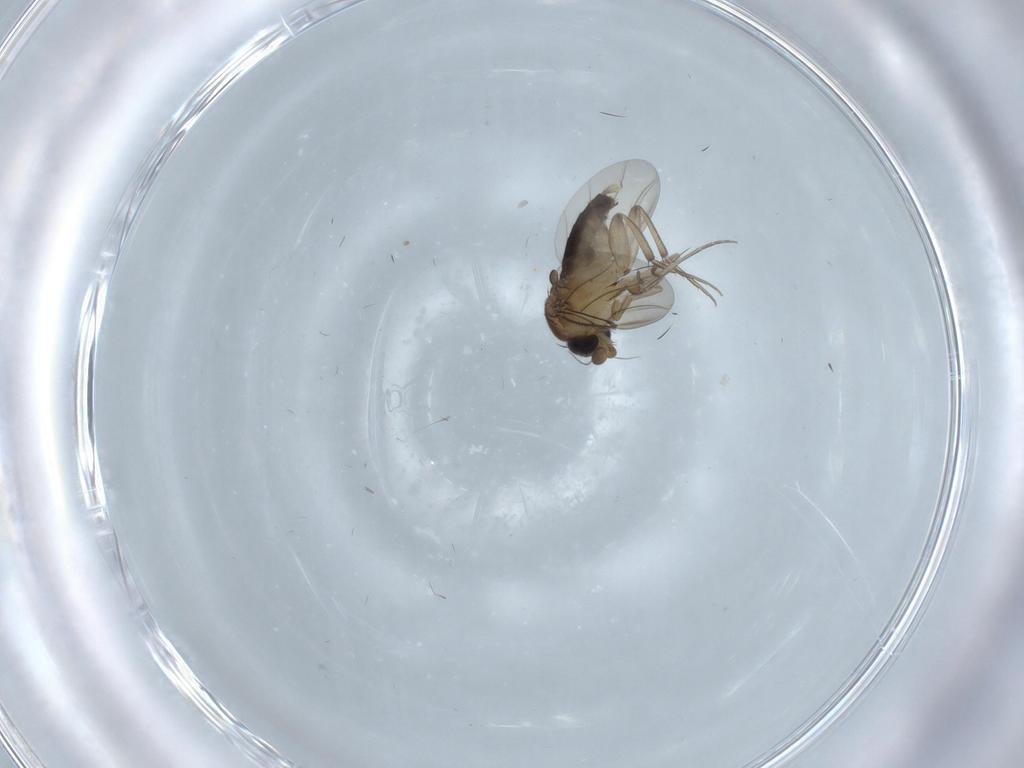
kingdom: Animalia
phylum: Arthropoda
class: Insecta
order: Diptera
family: Phoridae
